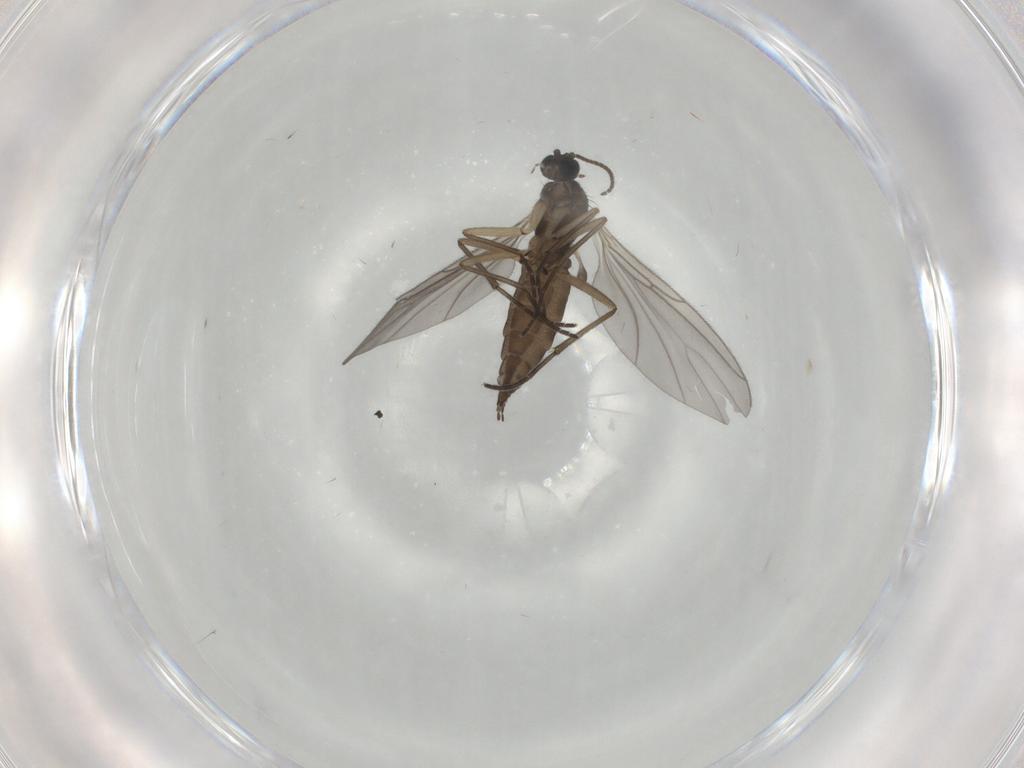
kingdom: Animalia
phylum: Arthropoda
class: Insecta
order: Diptera
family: Sciaridae
